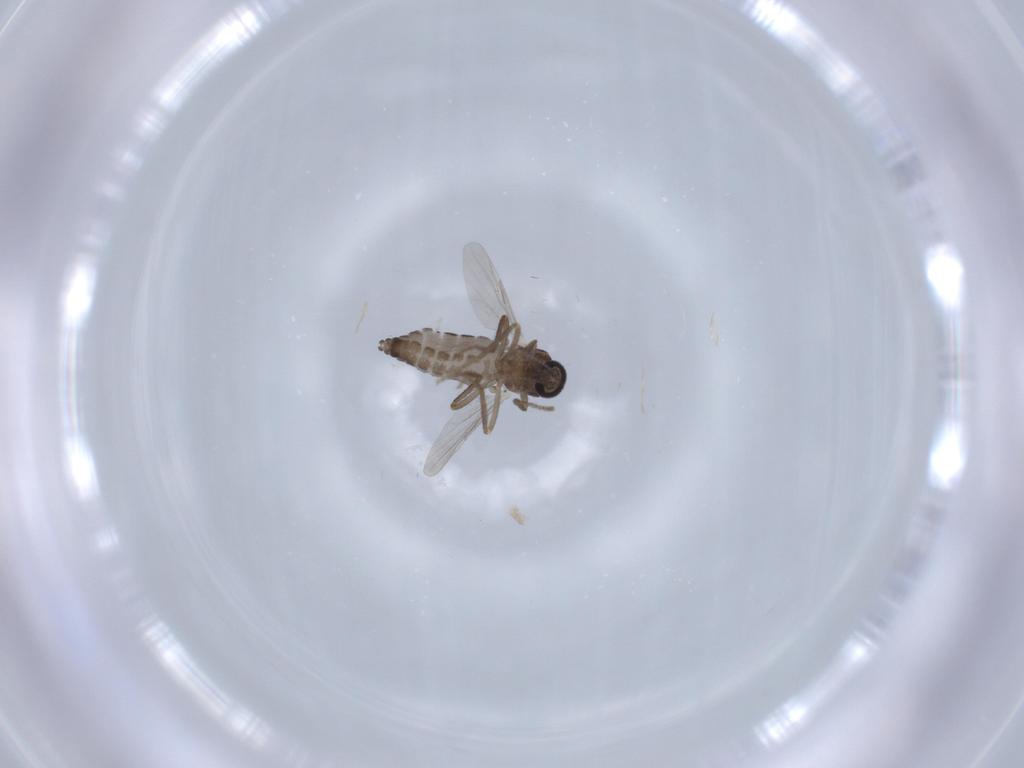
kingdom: Animalia
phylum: Arthropoda
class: Insecta
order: Diptera
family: Ceratopogonidae
